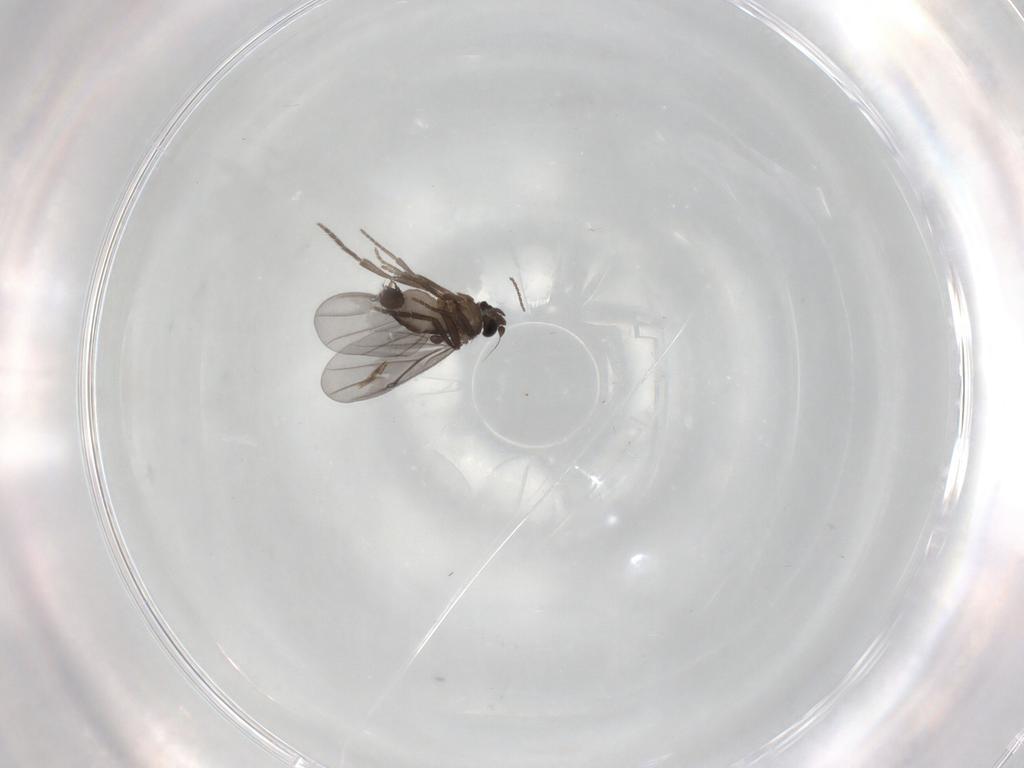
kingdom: Animalia
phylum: Arthropoda
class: Insecta
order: Diptera
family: Phoridae
